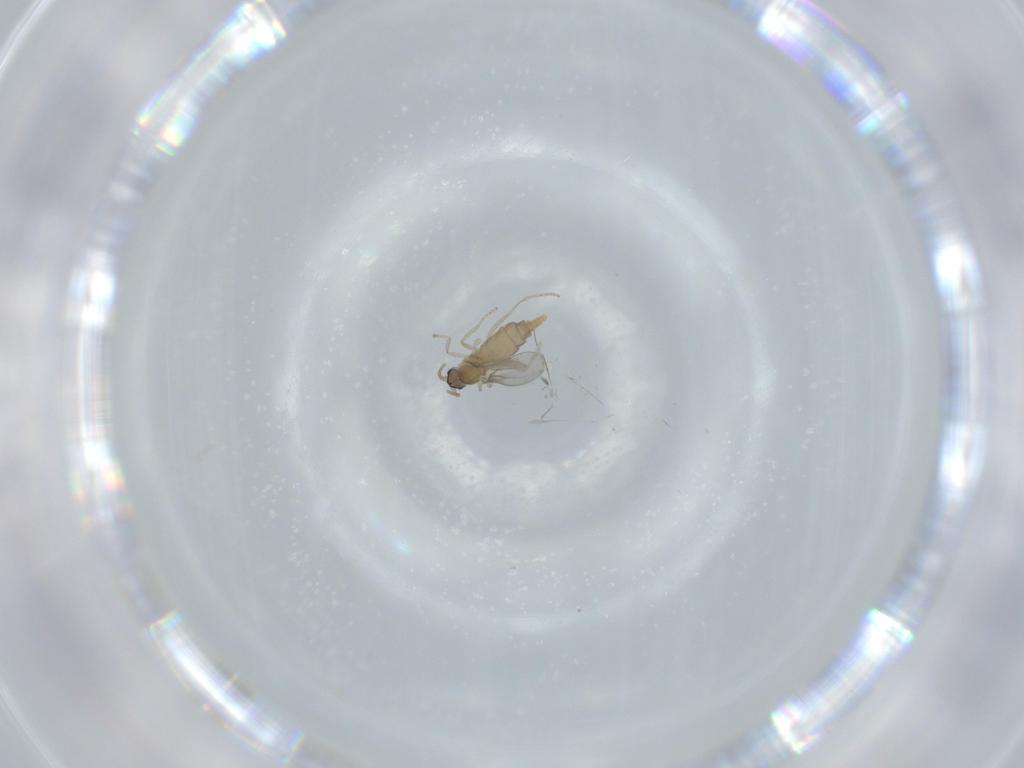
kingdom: Animalia
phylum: Arthropoda
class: Insecta
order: Diptera
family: Cecidomyiidae
